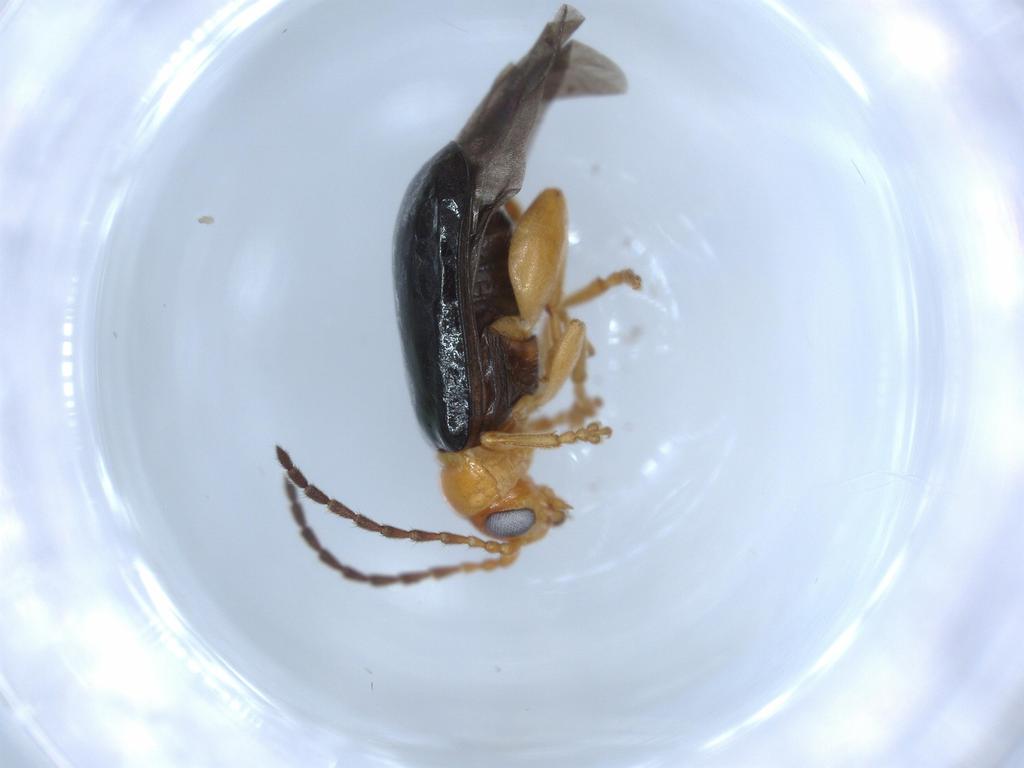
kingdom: Animalia
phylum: Arthropoda
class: Insecta
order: Coleoptera
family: Chrysomelidae
